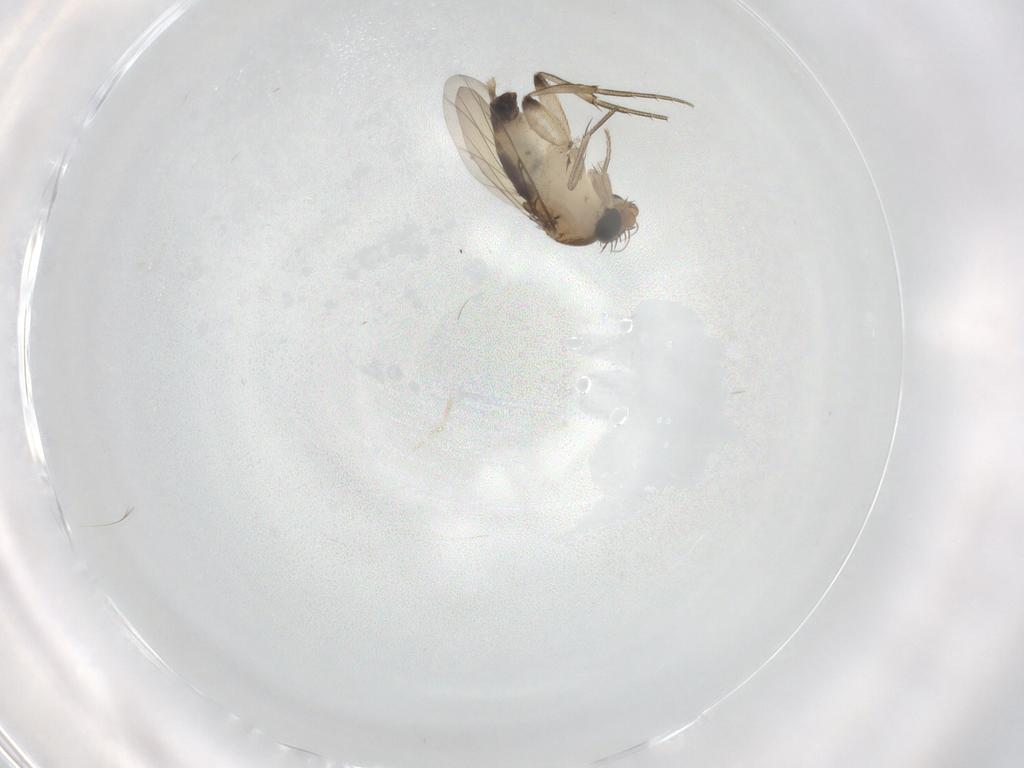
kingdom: Animalia
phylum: Arthropoda
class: Insecta
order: Diptera
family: Phoridae
